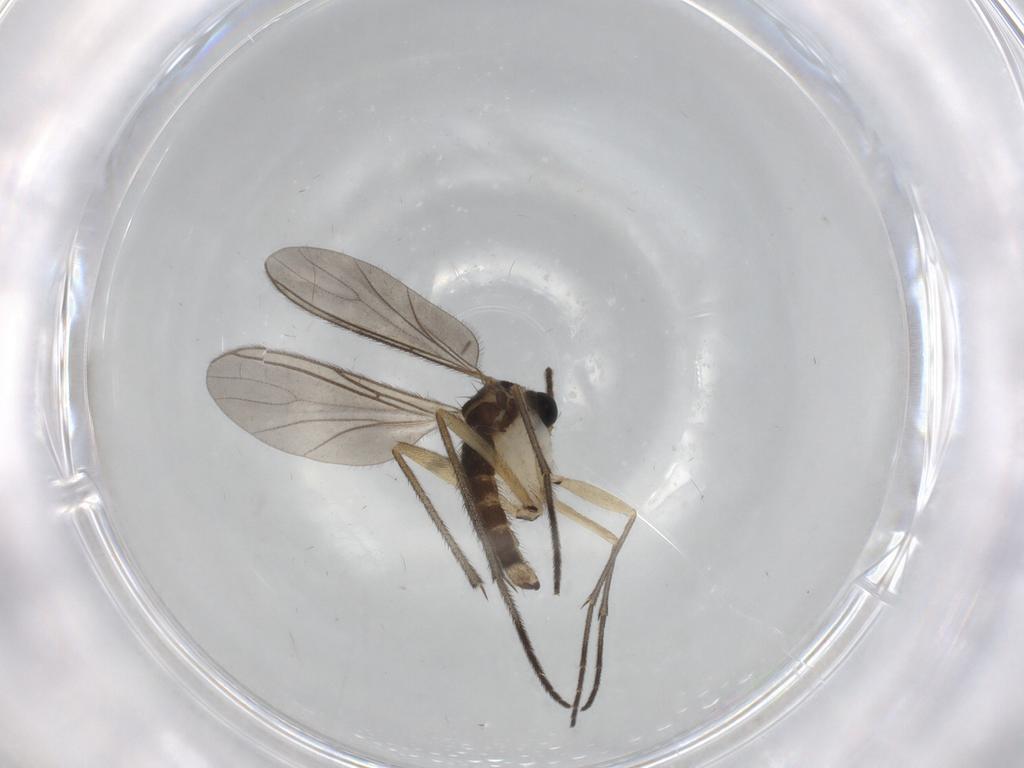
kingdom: Animalia
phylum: Arthropoda
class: Insecta
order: Diptera
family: Sciaridae
